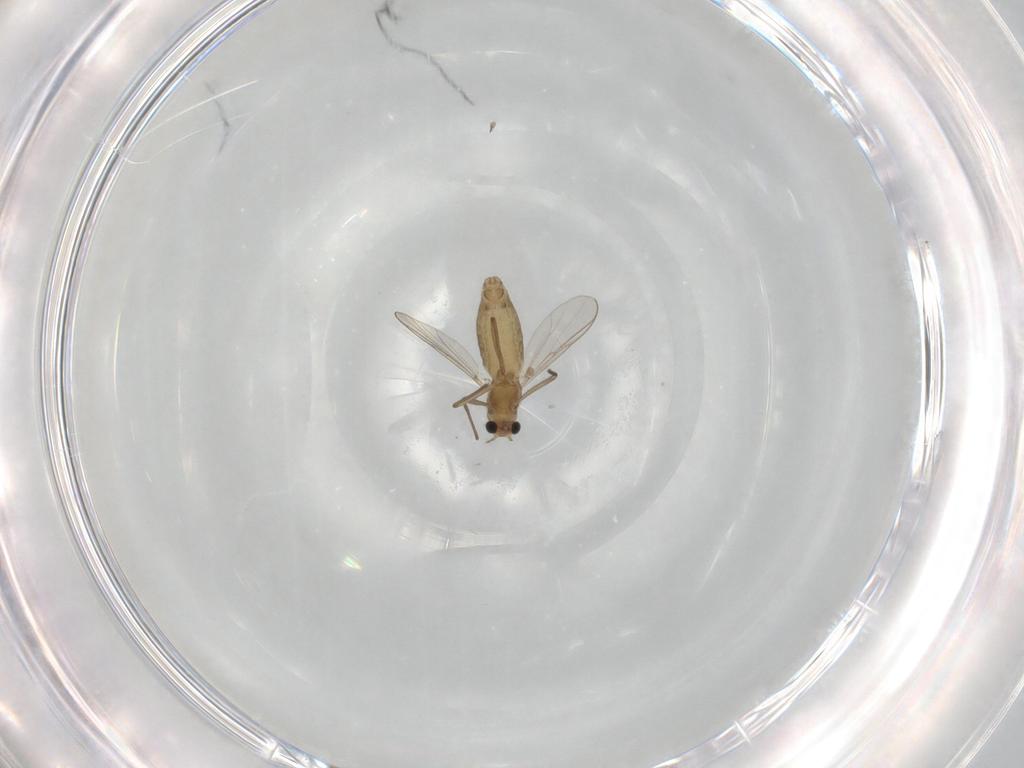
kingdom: Animalia
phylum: Arthropoda
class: Insecta
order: Diptera
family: Chironomidae
